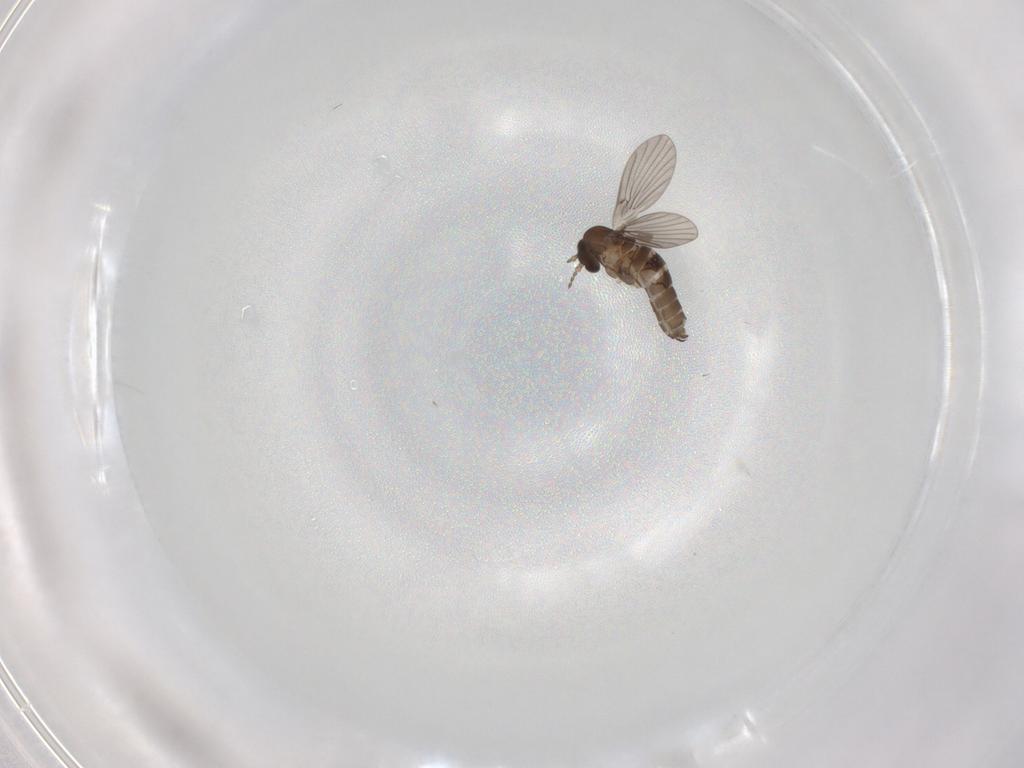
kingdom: Animalia
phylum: Arthropoda
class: Insecta
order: Diptera
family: Psychodidae
